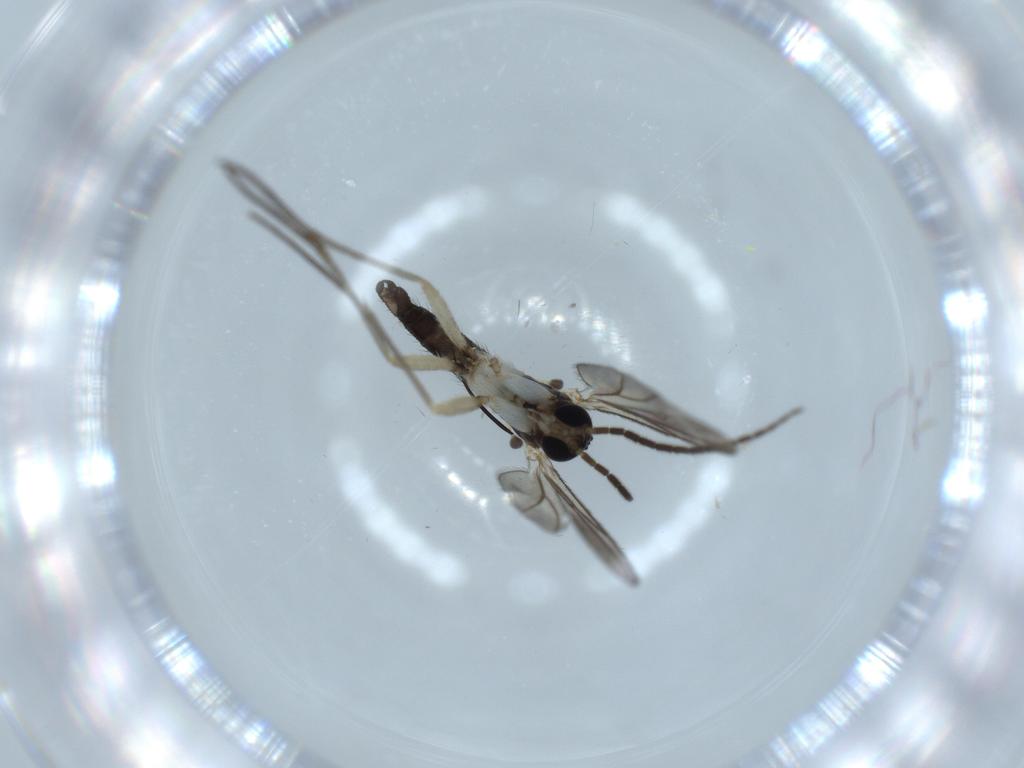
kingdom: Animalia
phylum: Arthropoda
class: Insecta
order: Diptera
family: Sciaridae
